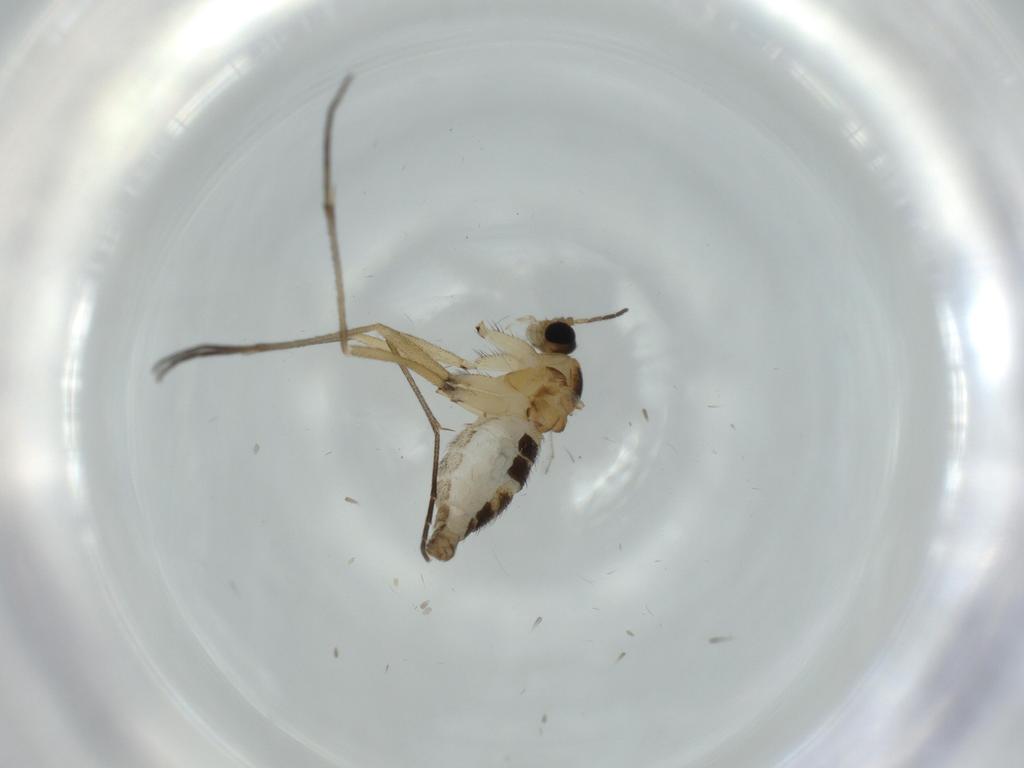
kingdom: Animalia
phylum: Arthropoda
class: Insecta
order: Diptera
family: Sciaridae
